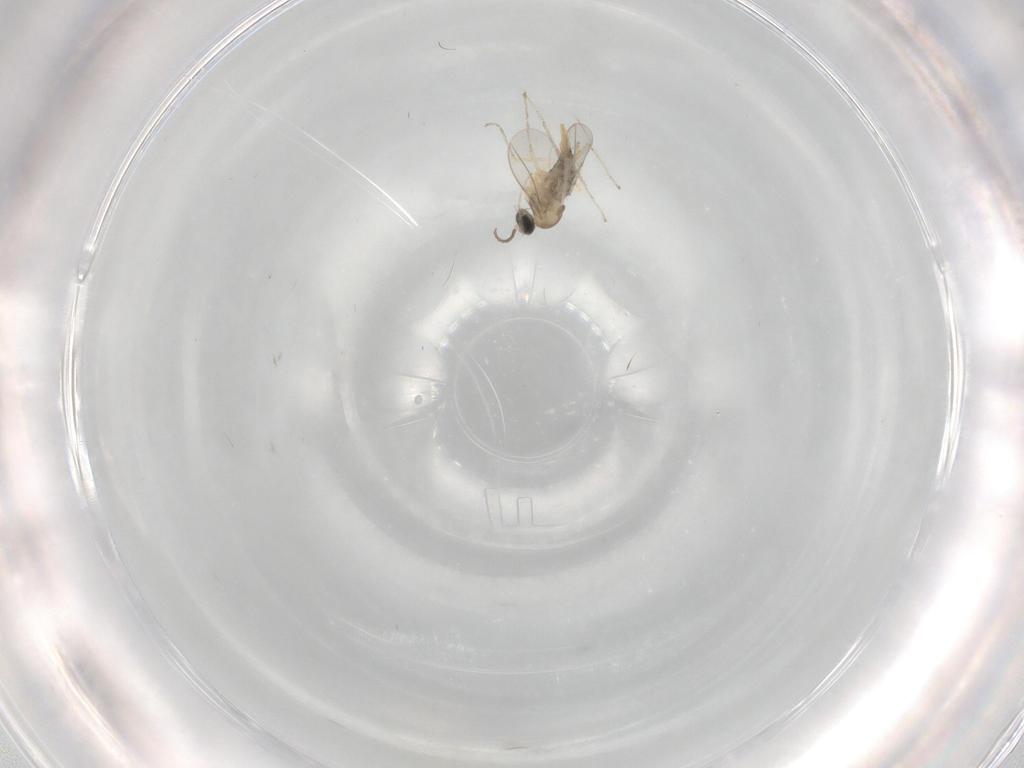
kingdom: Animalia
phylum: Arthropoda
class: Insecta
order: Diptera
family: Cecidomyiidae
